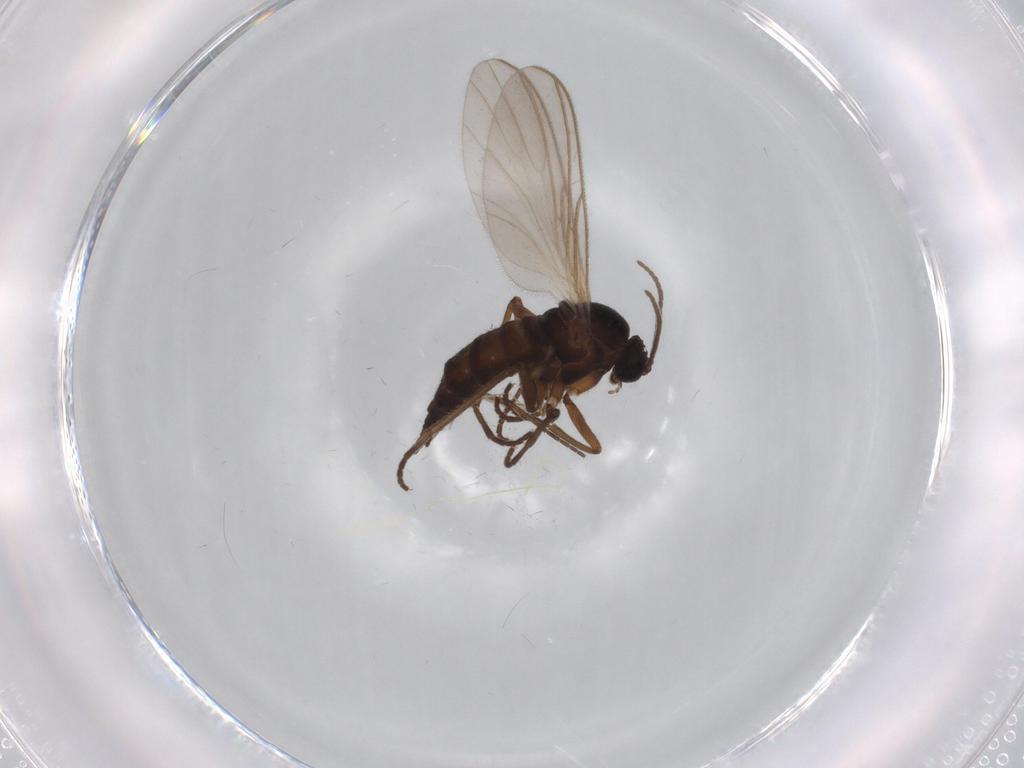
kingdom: Animalia
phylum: Arthropoda
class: Insecta
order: Diptera
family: Sciaridae
